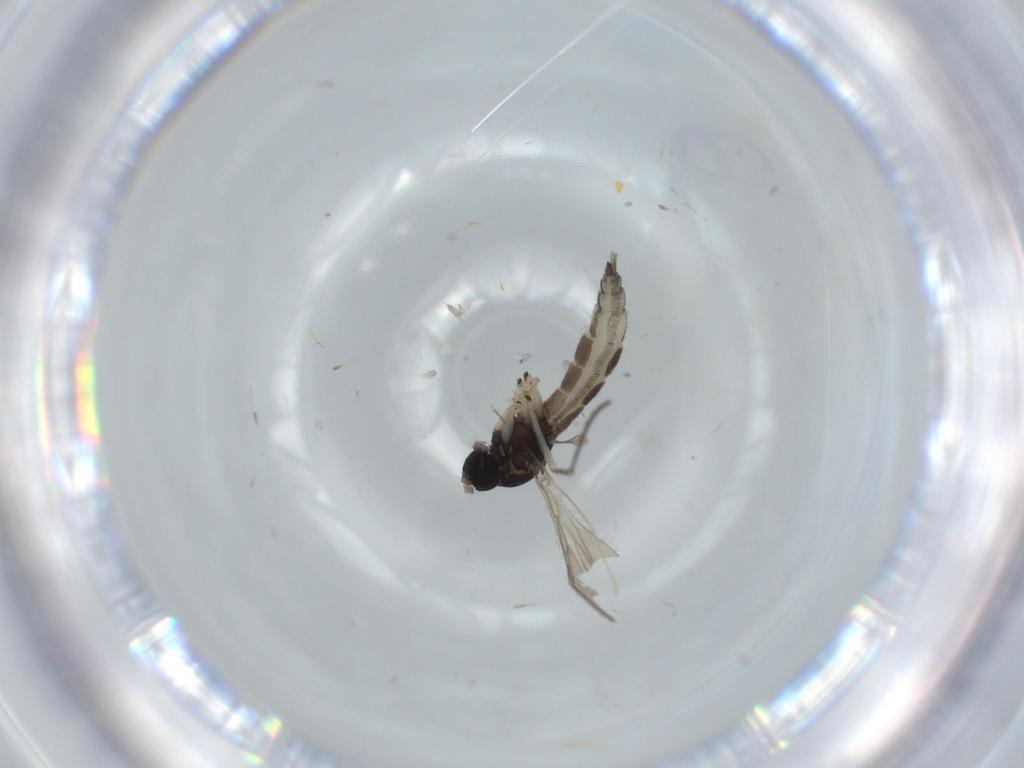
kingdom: Animalia
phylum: Arthropoda
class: Insecta
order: Diptera
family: Sciaridae
